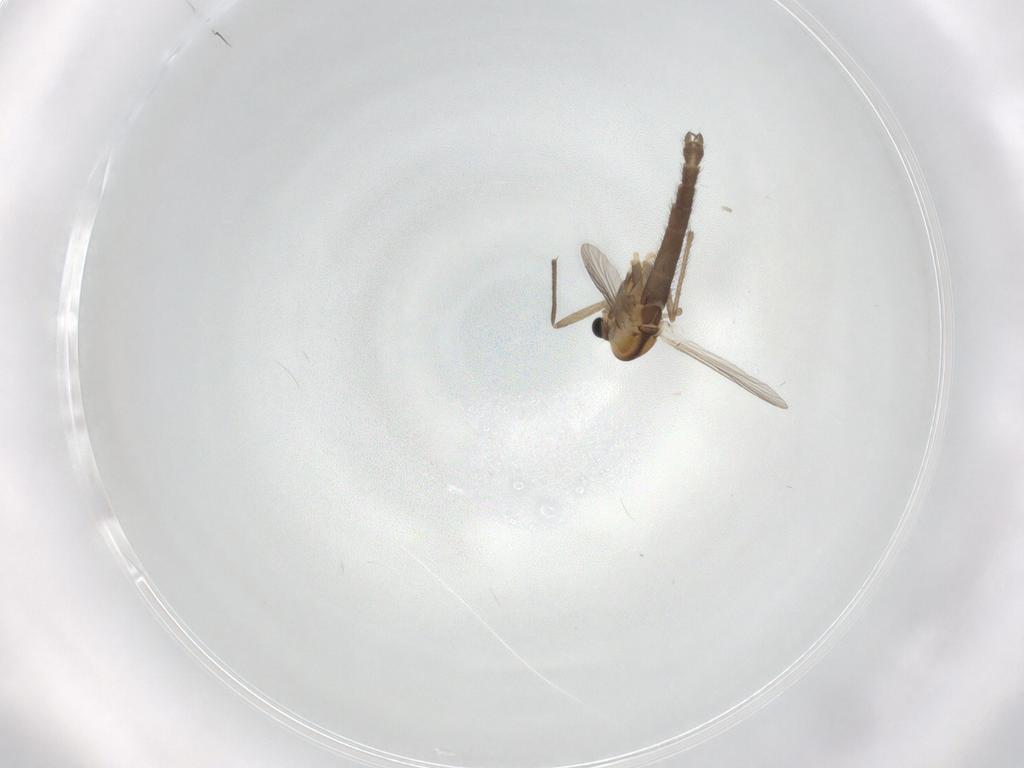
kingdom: Animalia
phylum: Arthropoda
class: Insecta
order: Diptera
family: Chironomidae
